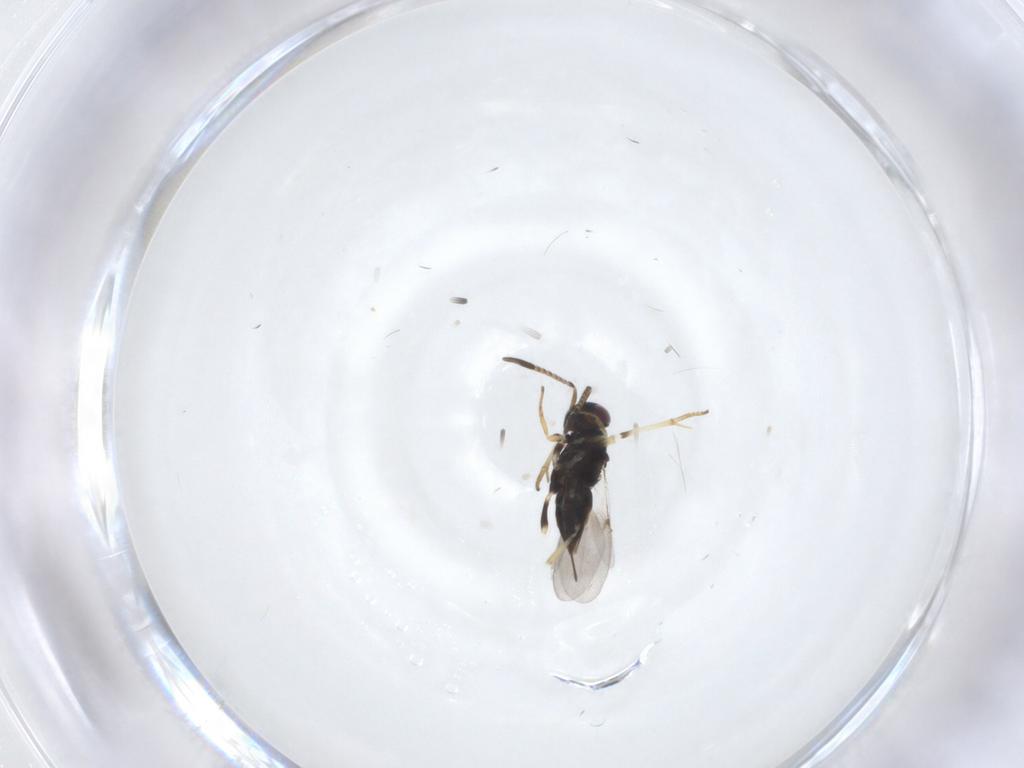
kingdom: Animalia
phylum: Arthropoda
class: Insecta
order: Hymenoptera
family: Encyrtidae
